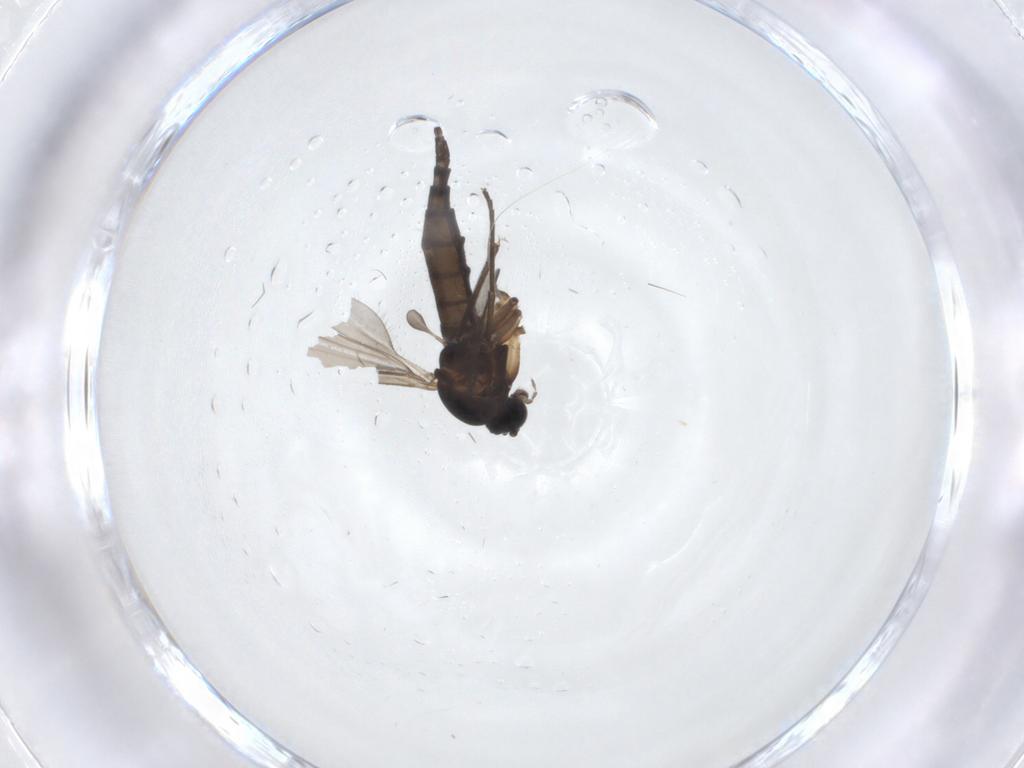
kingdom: Animalia
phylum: Arthropoda
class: Insecta
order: Diptera
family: Sciaridae
